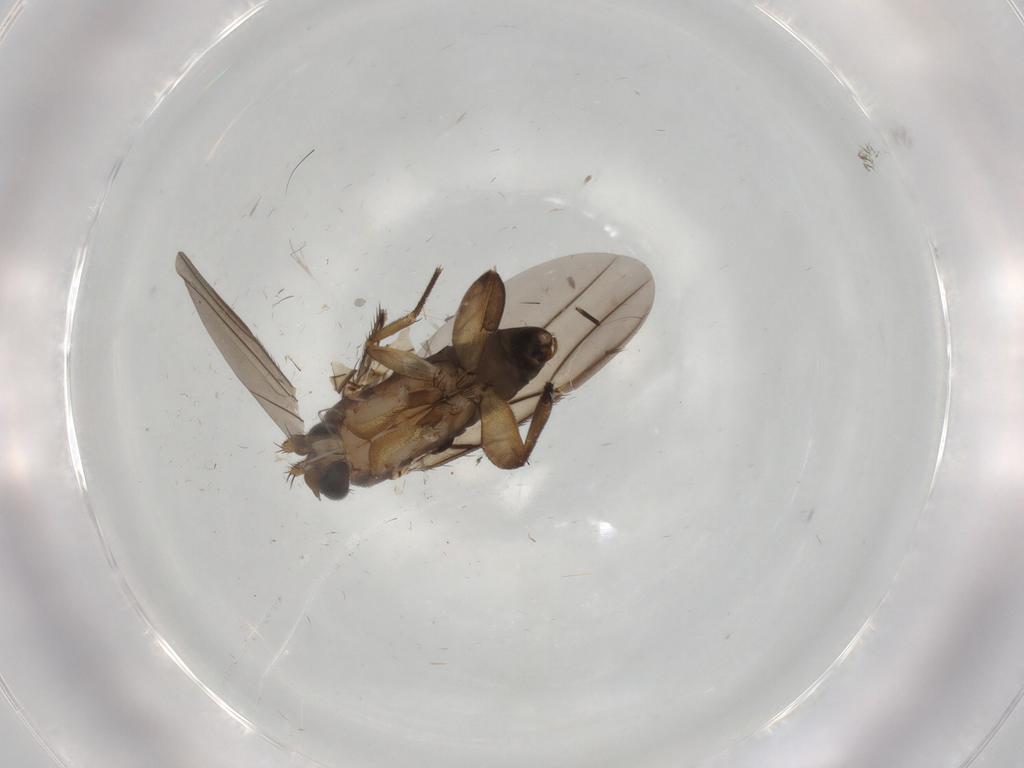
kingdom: Animalia
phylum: Arthropoda
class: Insecta
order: Diptera
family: Cecidomyiidae
